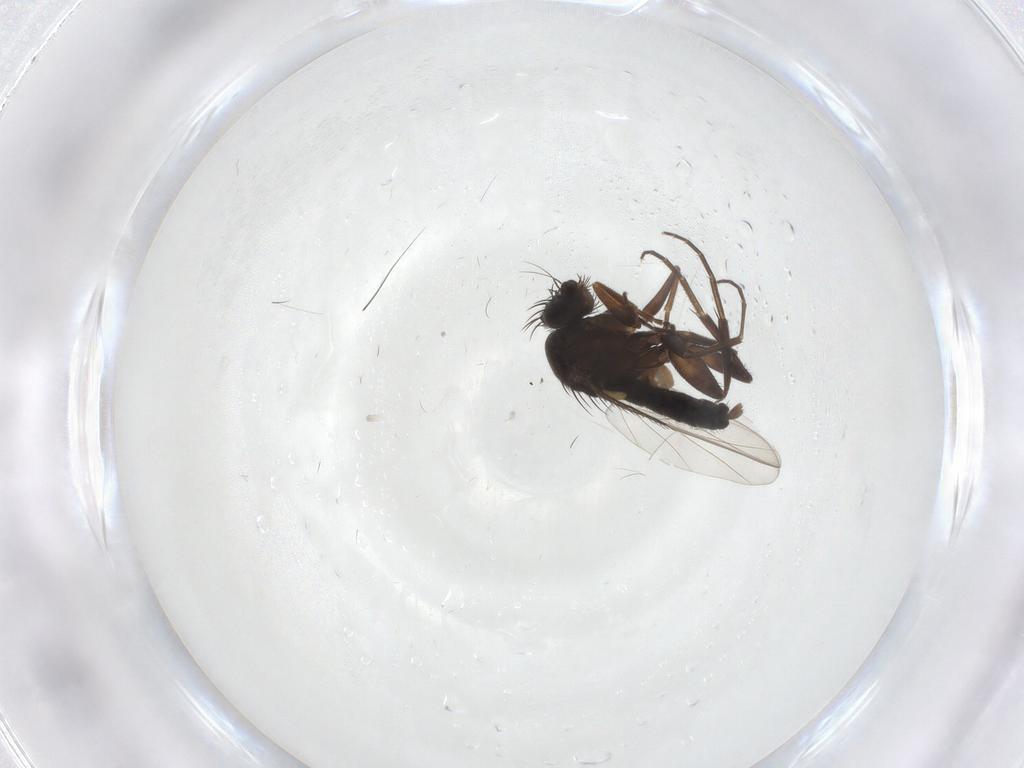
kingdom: Animalia
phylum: Arthropoda
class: Insecta
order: Diptera
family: Phoridae
